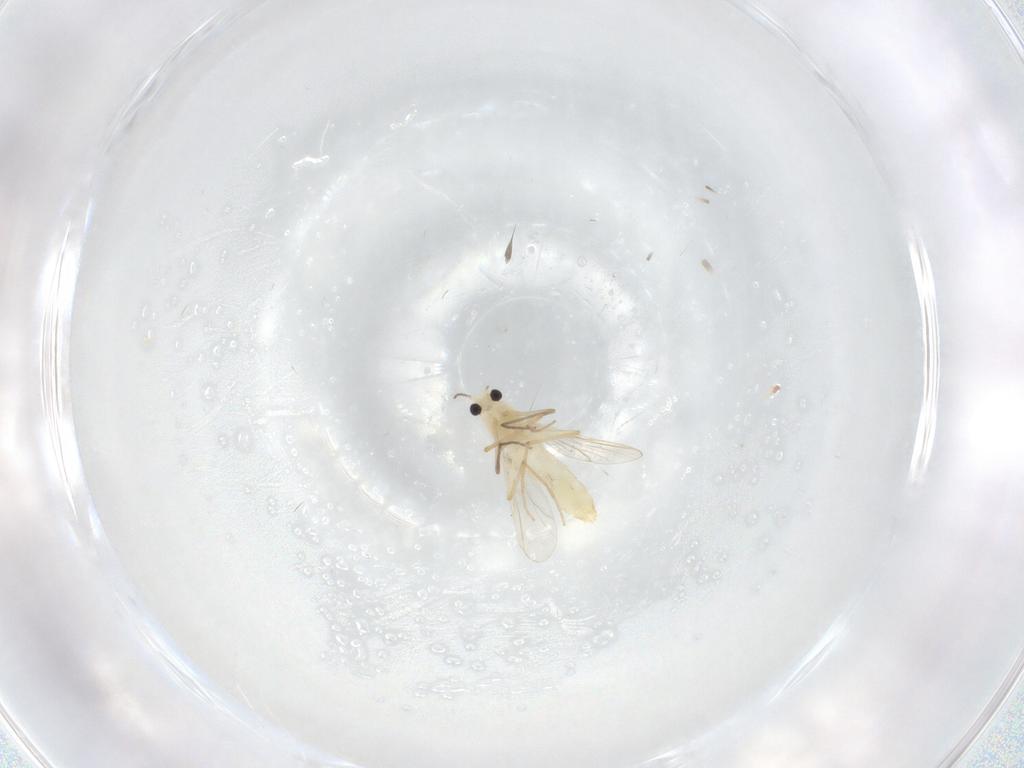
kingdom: Animalia
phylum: Arthropoda
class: Insecta
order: Diptera
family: Chironomidae
